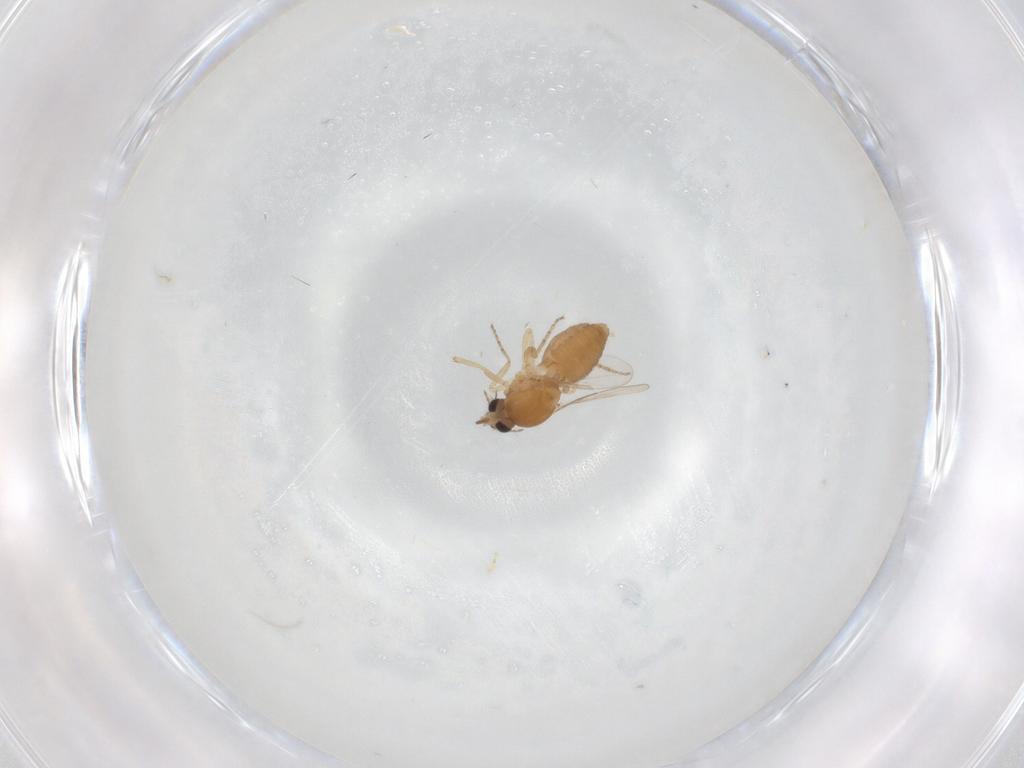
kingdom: Animalia
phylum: Arthropoda
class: Insecta
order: Diptera
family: Ceratopogonidae
